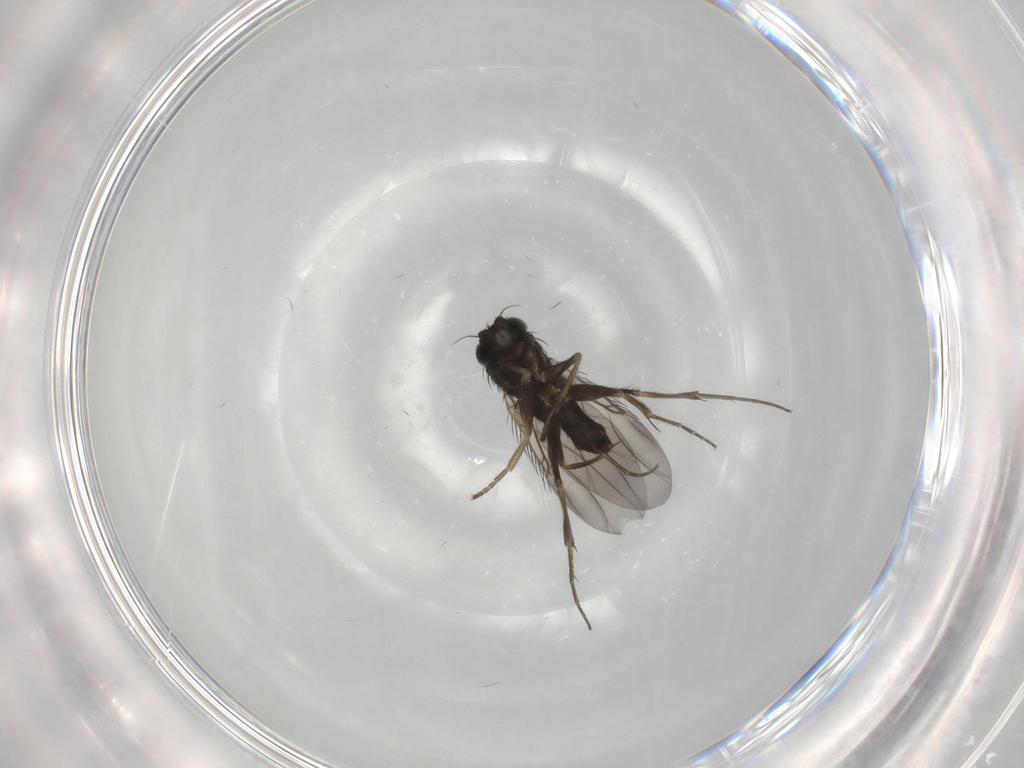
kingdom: Animalia
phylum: Arthropoda
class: Insecta
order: Diptera
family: Phoridae
